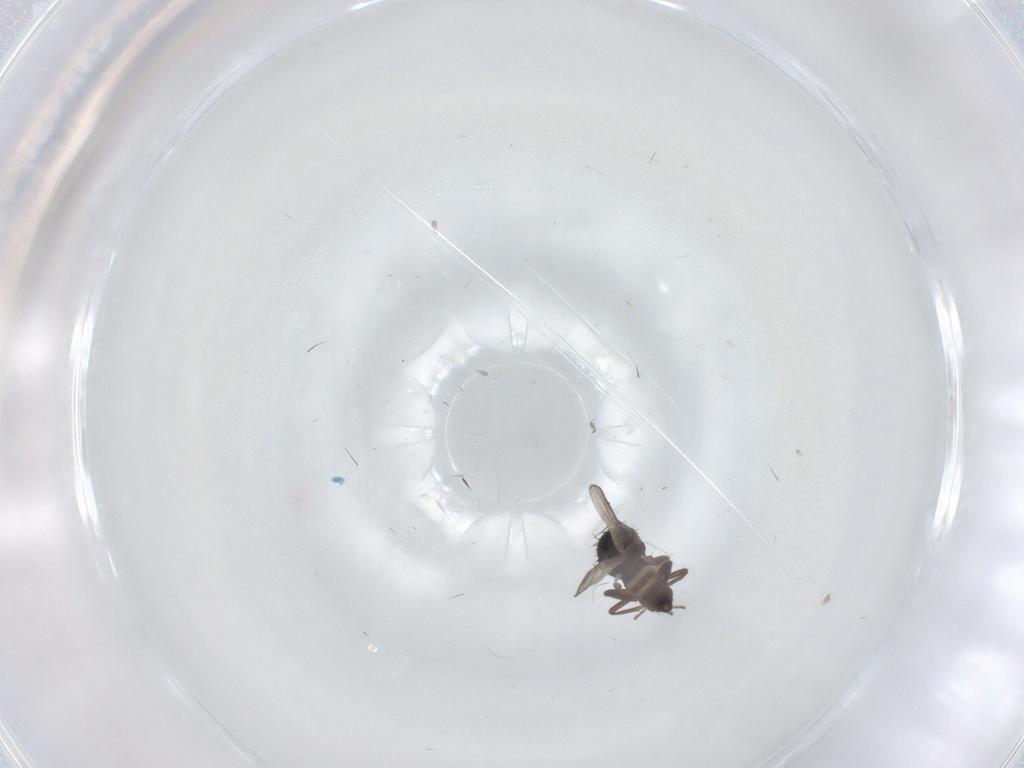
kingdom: Animalia
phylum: Arthropoda
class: Insecta
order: Diptera
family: Sphaeroceridae
